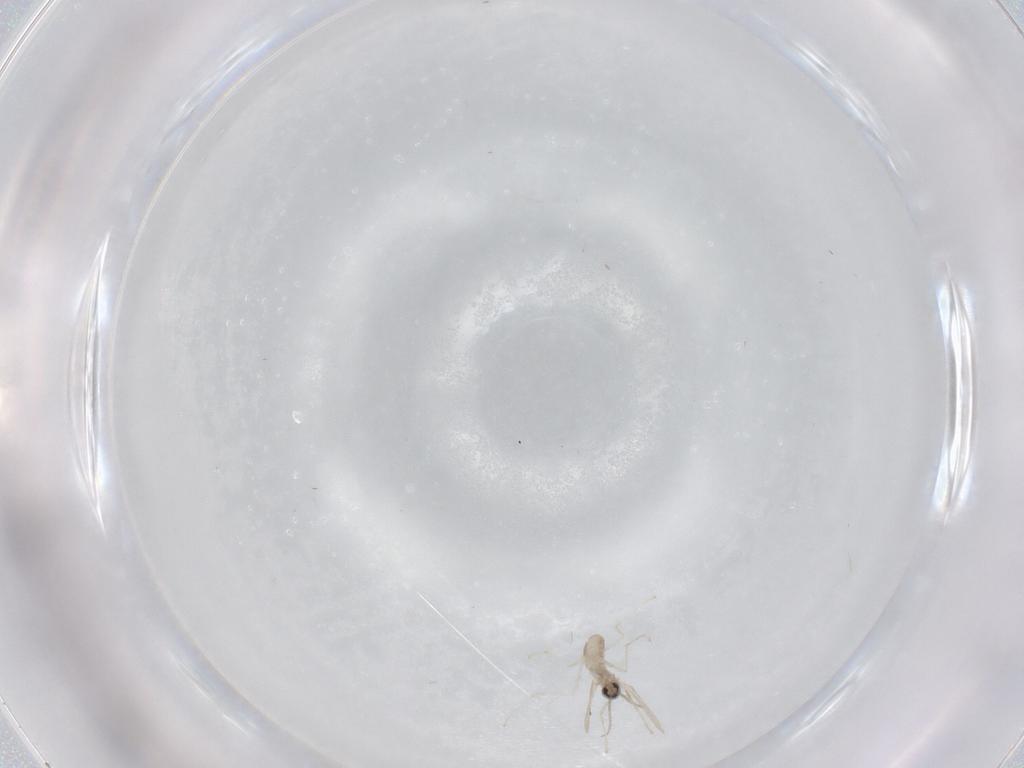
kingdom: Animalia
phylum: Arthropoda
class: Insecta
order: Diptera
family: Cecidomyiidae
